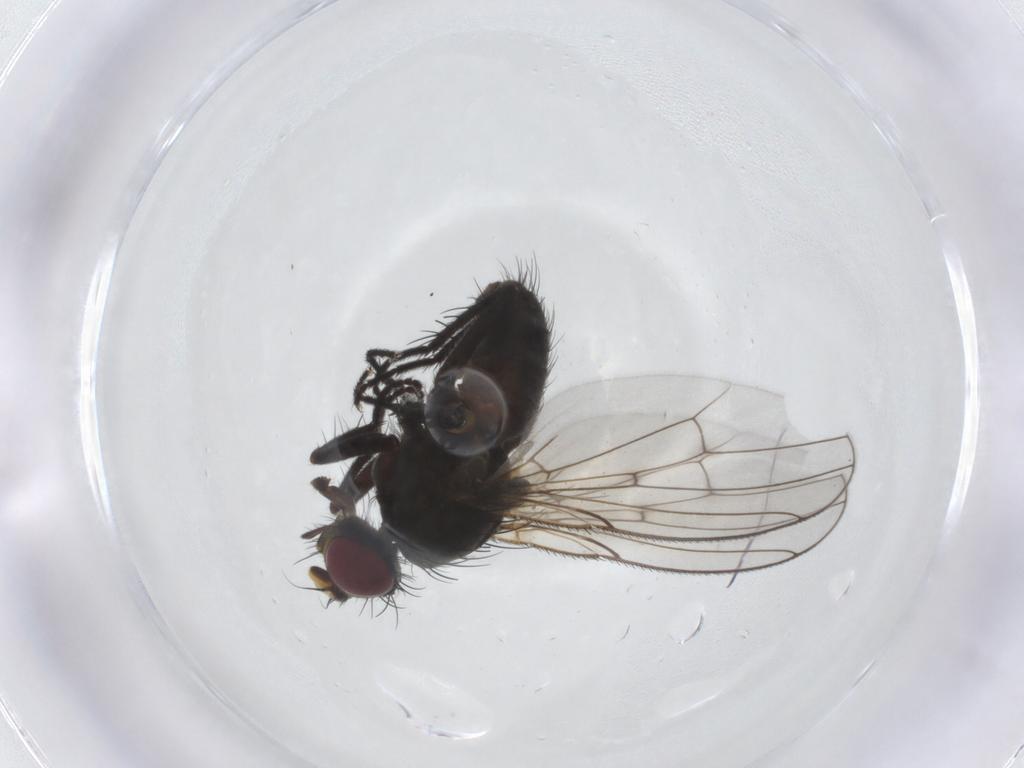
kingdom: Animalia
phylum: Arthropoda
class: Insecta
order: Diptera
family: Muscidae
